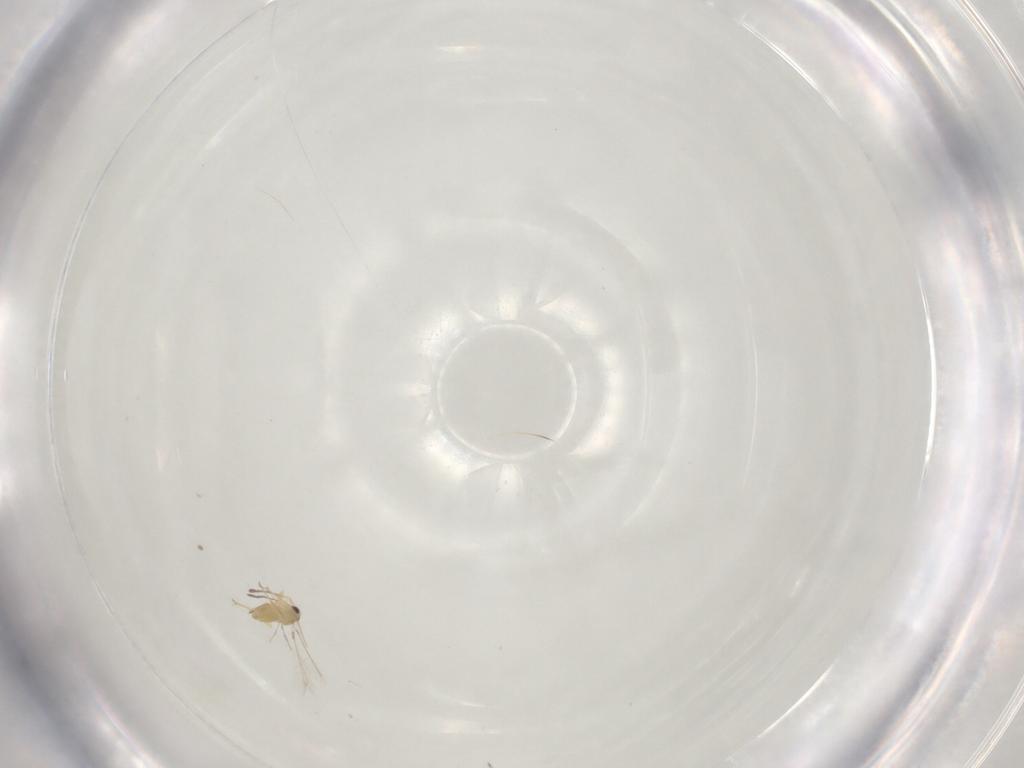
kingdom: Animalia
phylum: Arthropoda
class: Insecta
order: Hymenoptera
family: Mymaridae
